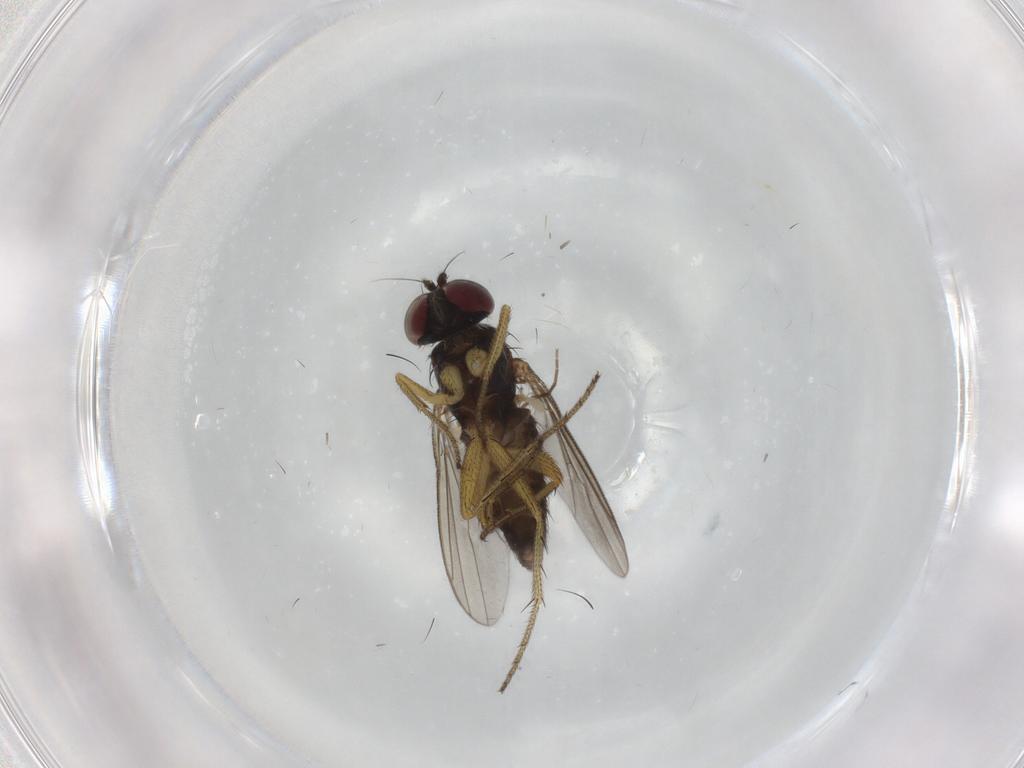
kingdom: Animalia
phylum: Arthropoda
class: Insecta
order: Diptera
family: Dolichopodidae
